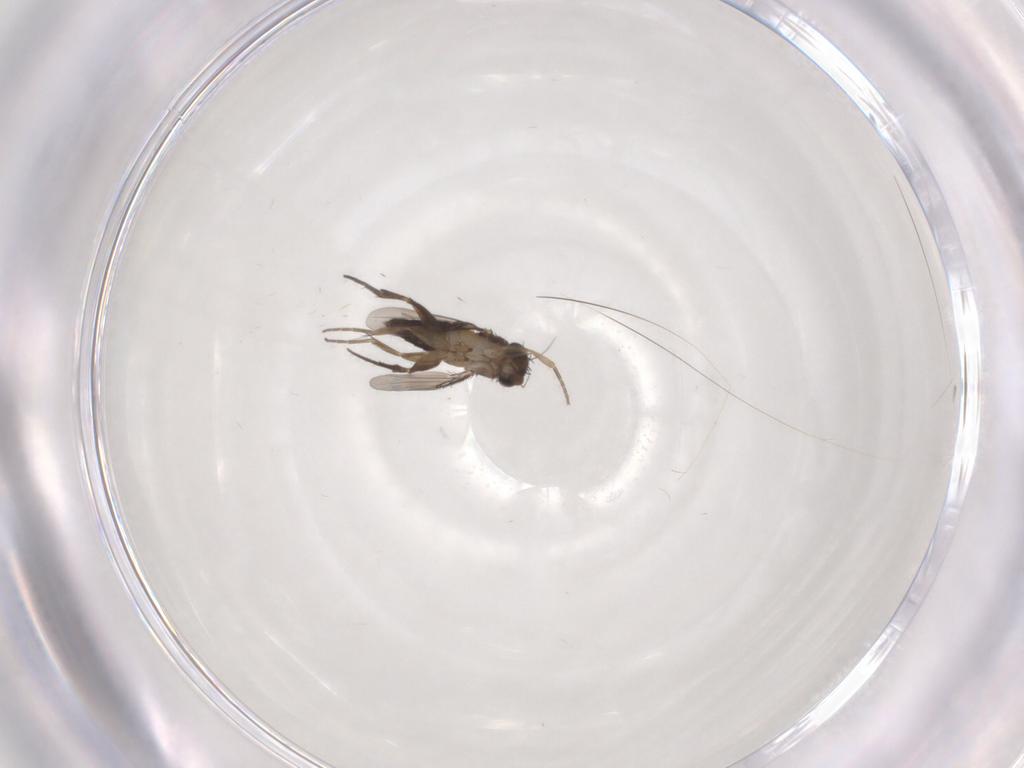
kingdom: Animalia
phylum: Arthropoda
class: Insecta
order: Diptera
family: Phoridae
